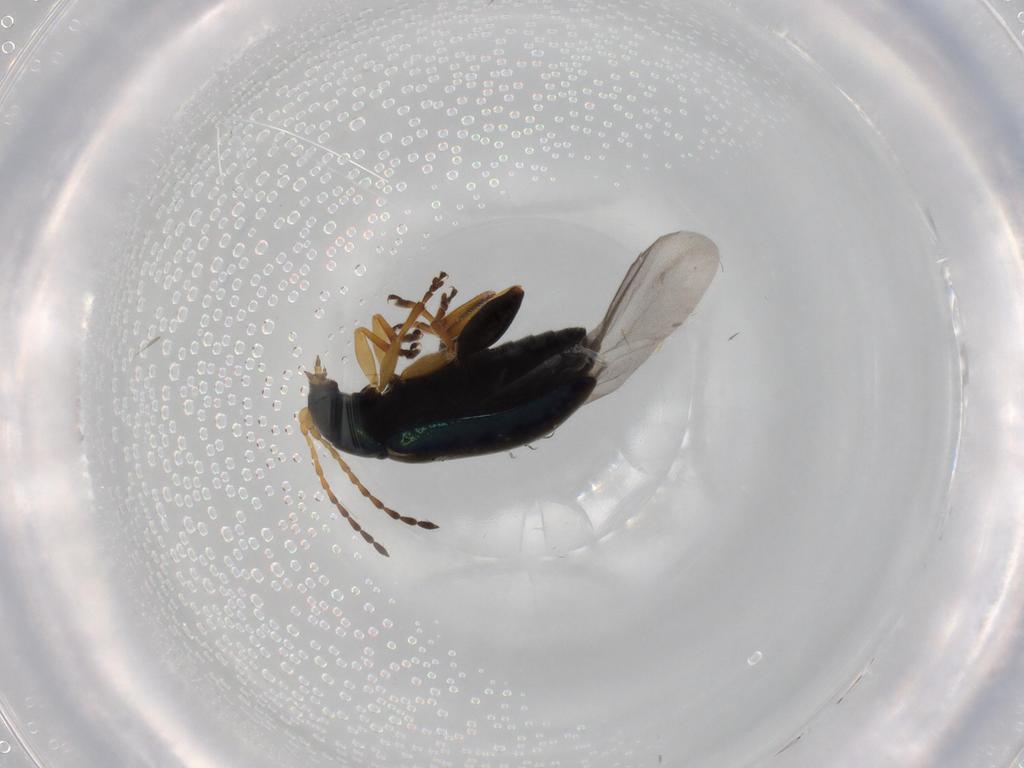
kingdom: Animalia
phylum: Arthropoda
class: Insecta
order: Coleoptera
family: Chrysomelidae
